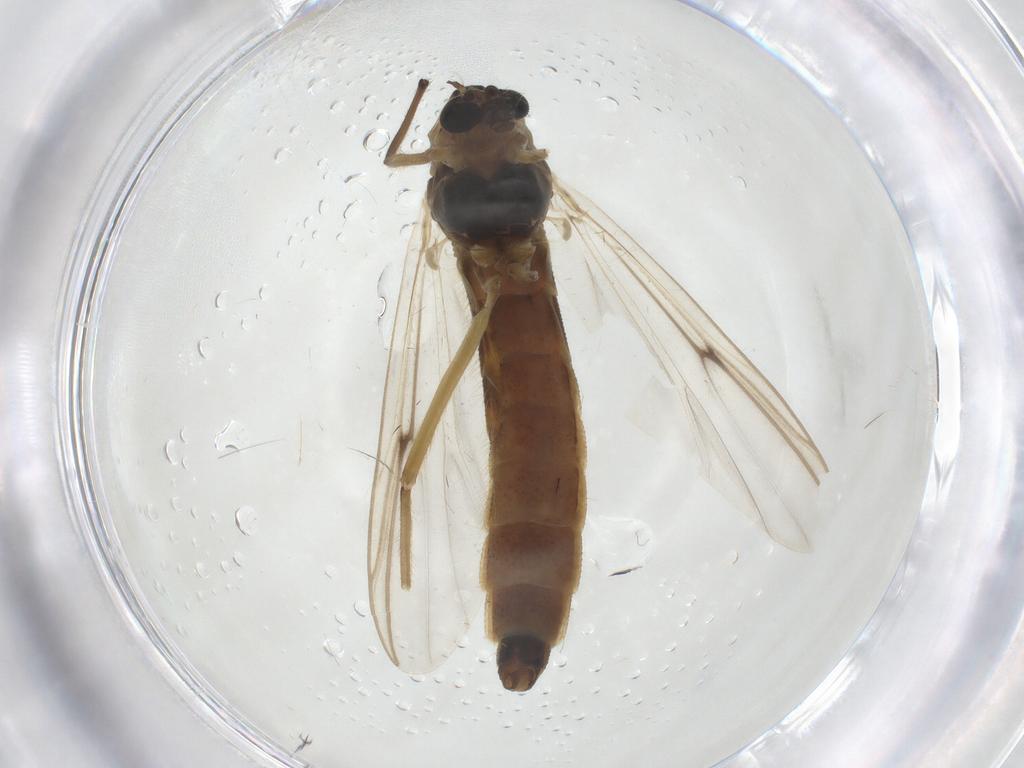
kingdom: Animalia
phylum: Arthropoda
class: Insecta
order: Diptera
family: Chironomidae
